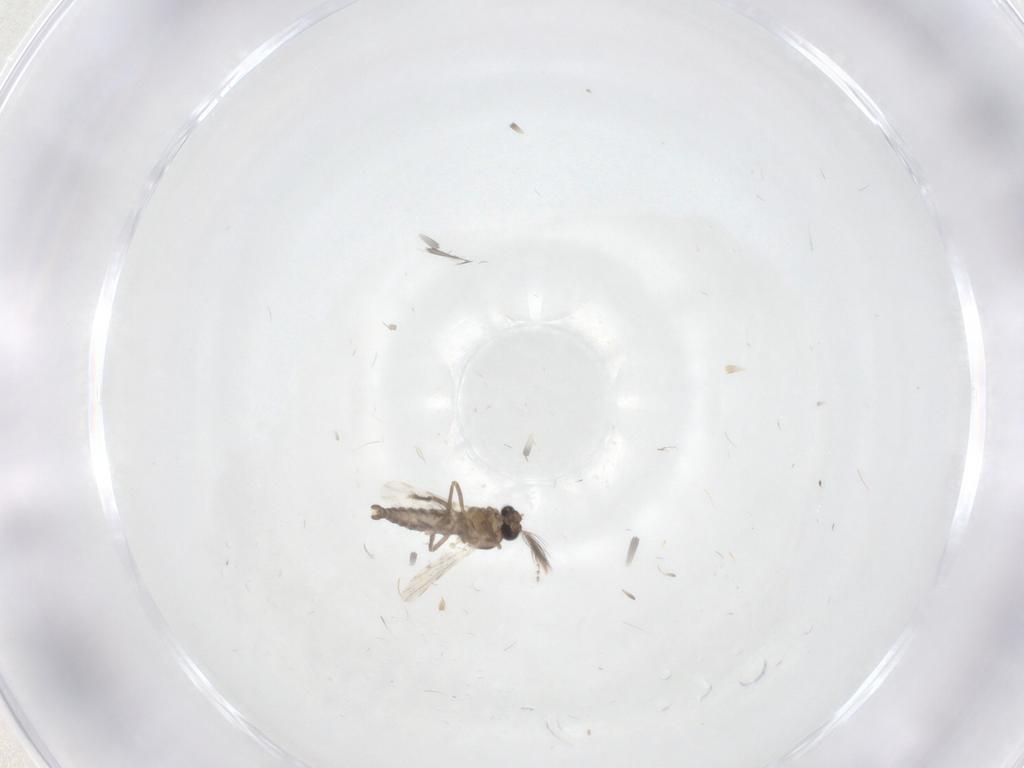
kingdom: Animalia
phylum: Arthropoda
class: Insecta
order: Diptera
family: Ceratopogonidae
